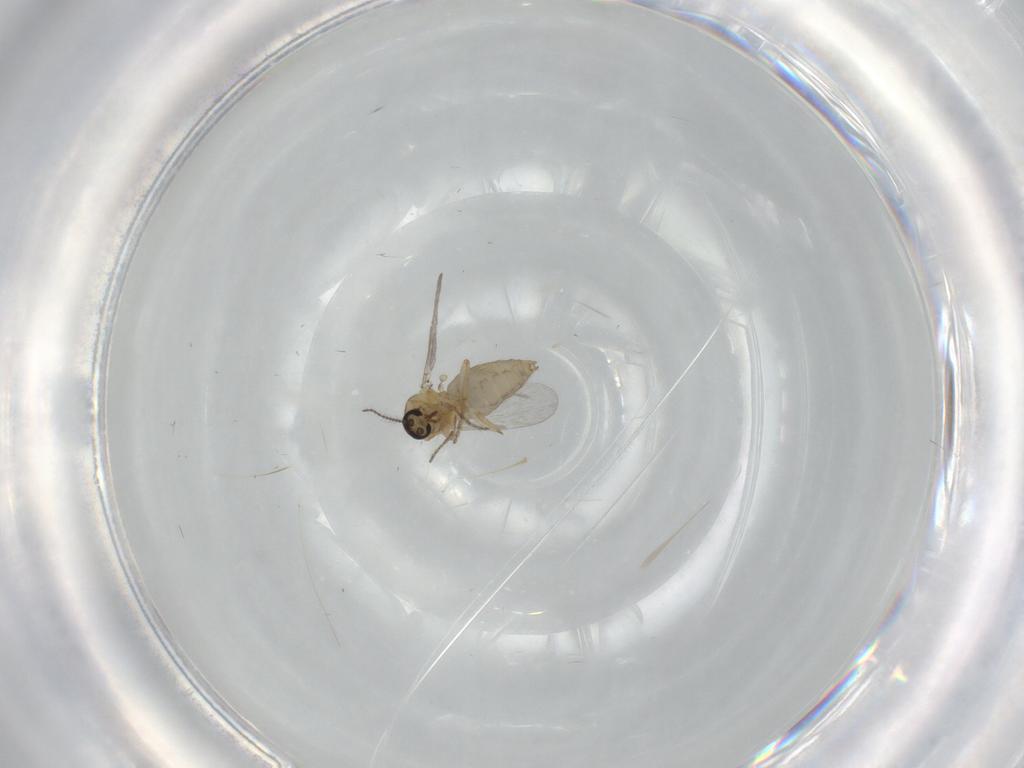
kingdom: Animalia
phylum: Arthropoda
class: Insecta
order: Diptera
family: Ceratopogonidae
